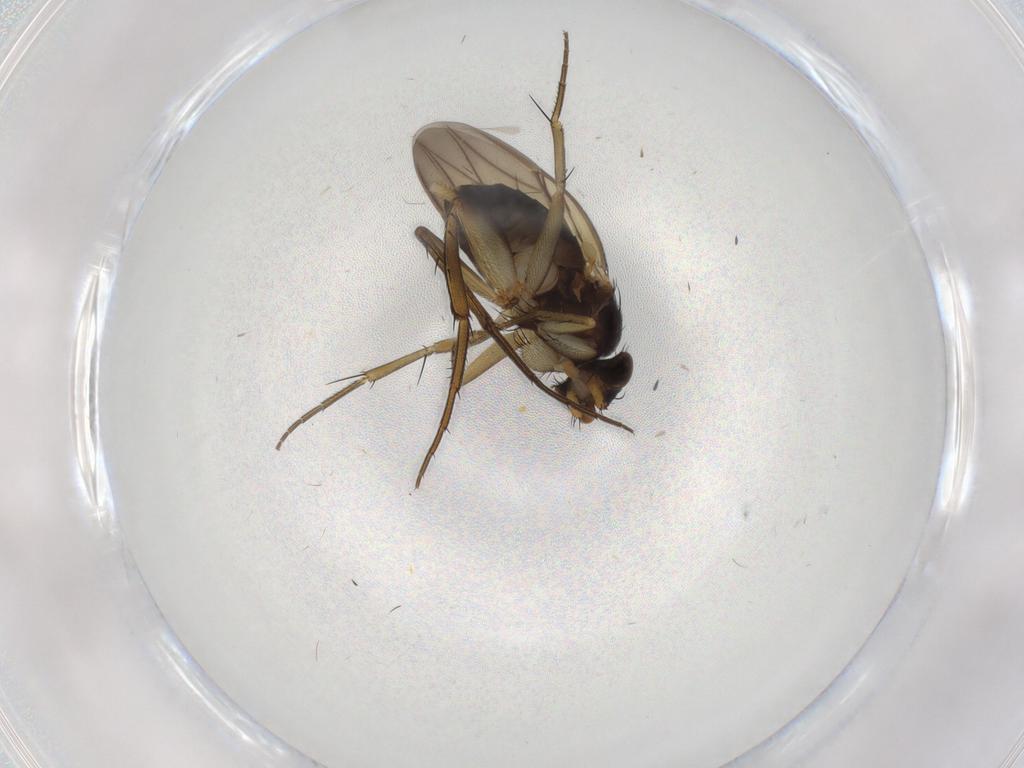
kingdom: Animalia
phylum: Arthropoda
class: Insecta
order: Diptera
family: Phoridae
